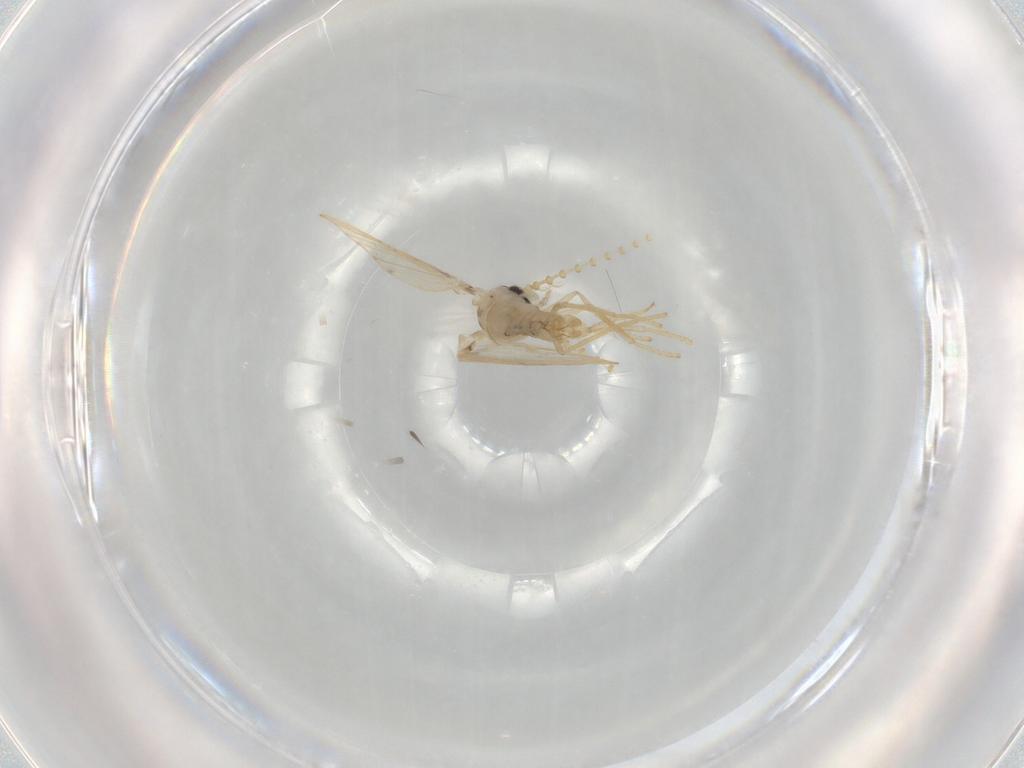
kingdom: Animalia
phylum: Arthropoda
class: Insecta
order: Diptera
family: Psychodidae
